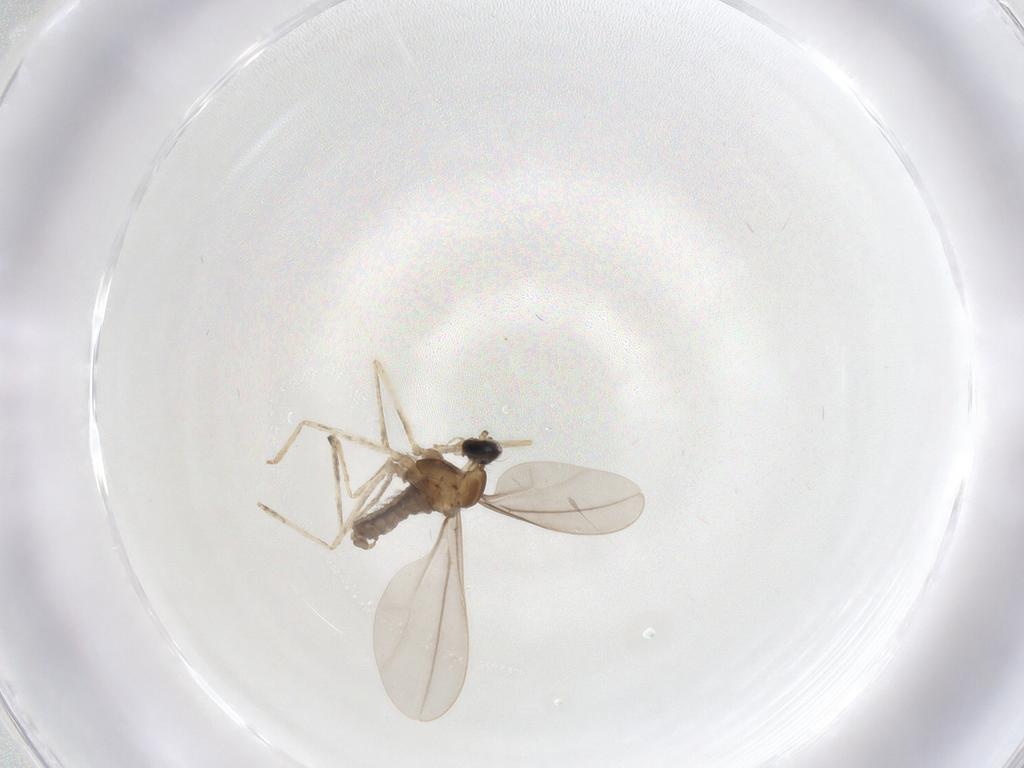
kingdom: Animalia
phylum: Arthropoda
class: Insecta
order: Diptera
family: Cecidomyiidae
